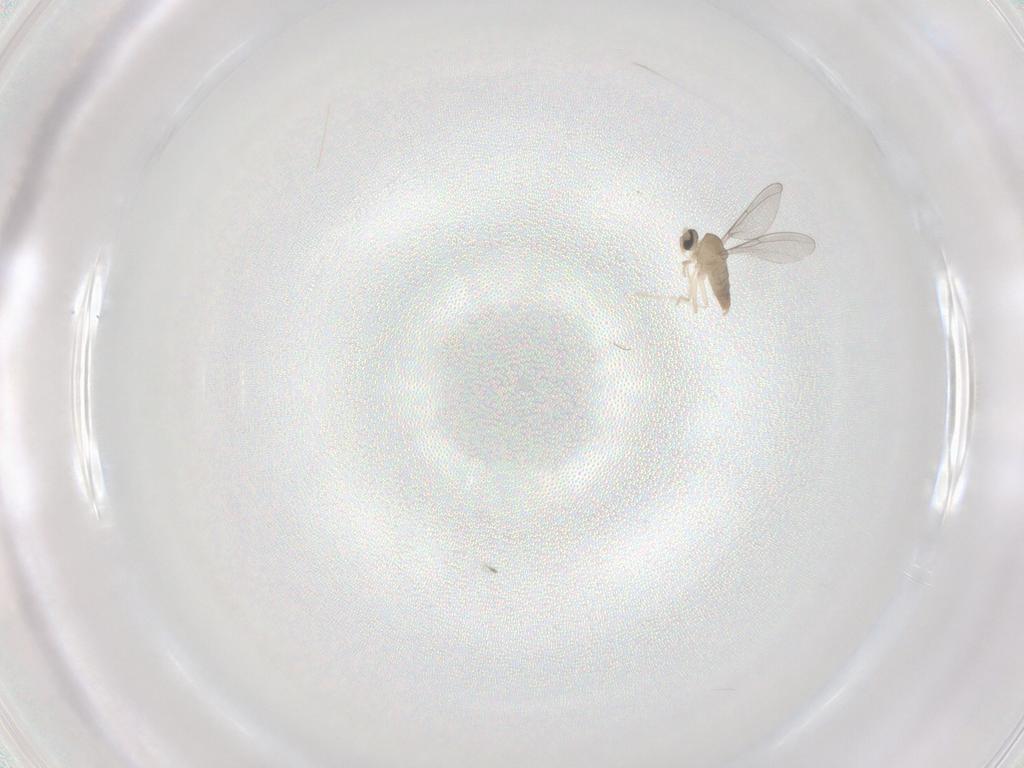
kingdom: Animalia
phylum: Arthropoda
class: Insecta
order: Diptera
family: Cecidomyiidae
